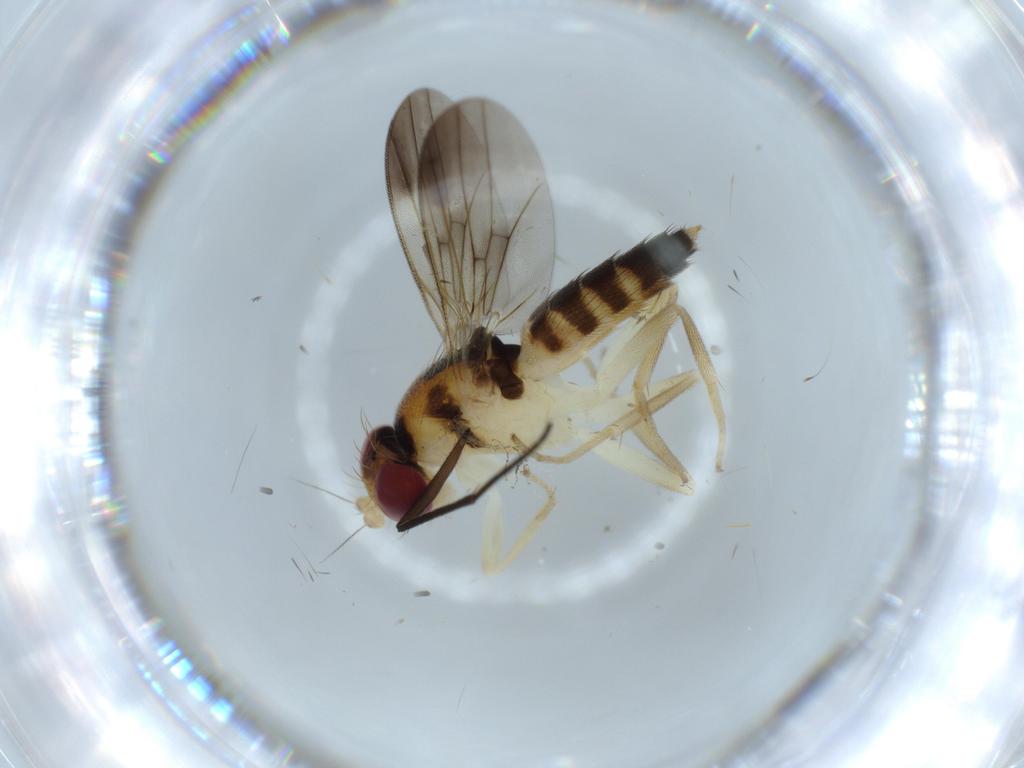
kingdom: Animalia
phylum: Arthropoda
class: Insecta
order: Diptera
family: Clusiidae
